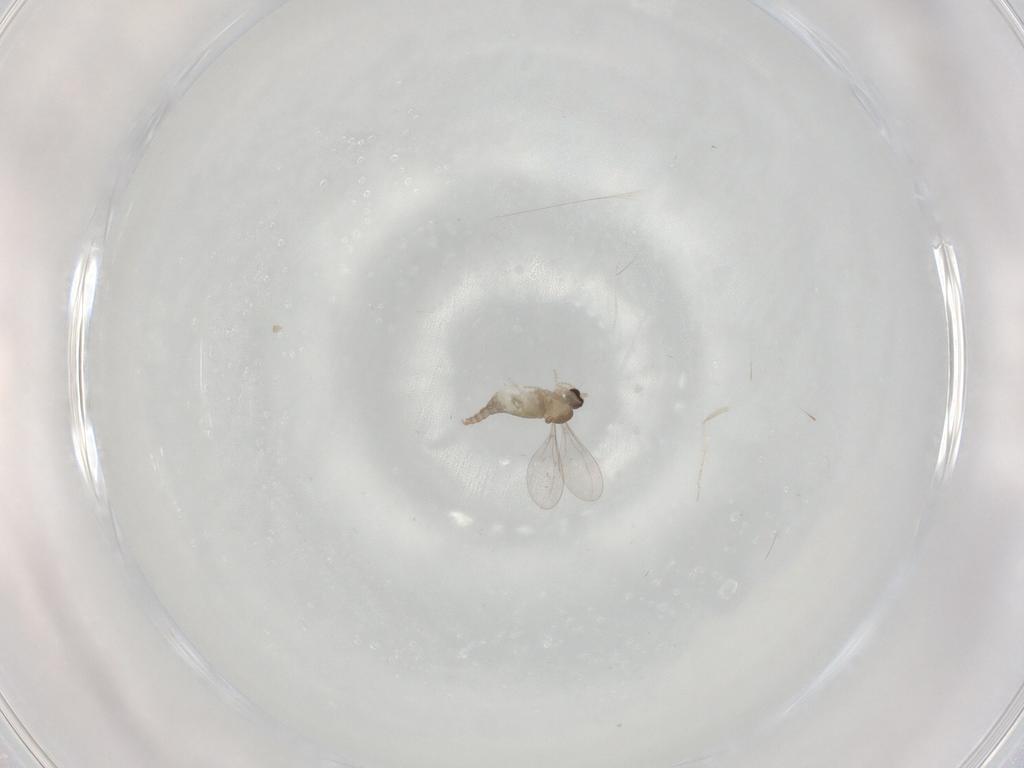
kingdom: Animalia
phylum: Arthropoda
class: Insecta
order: Diptera
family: Cecidomyiidae
